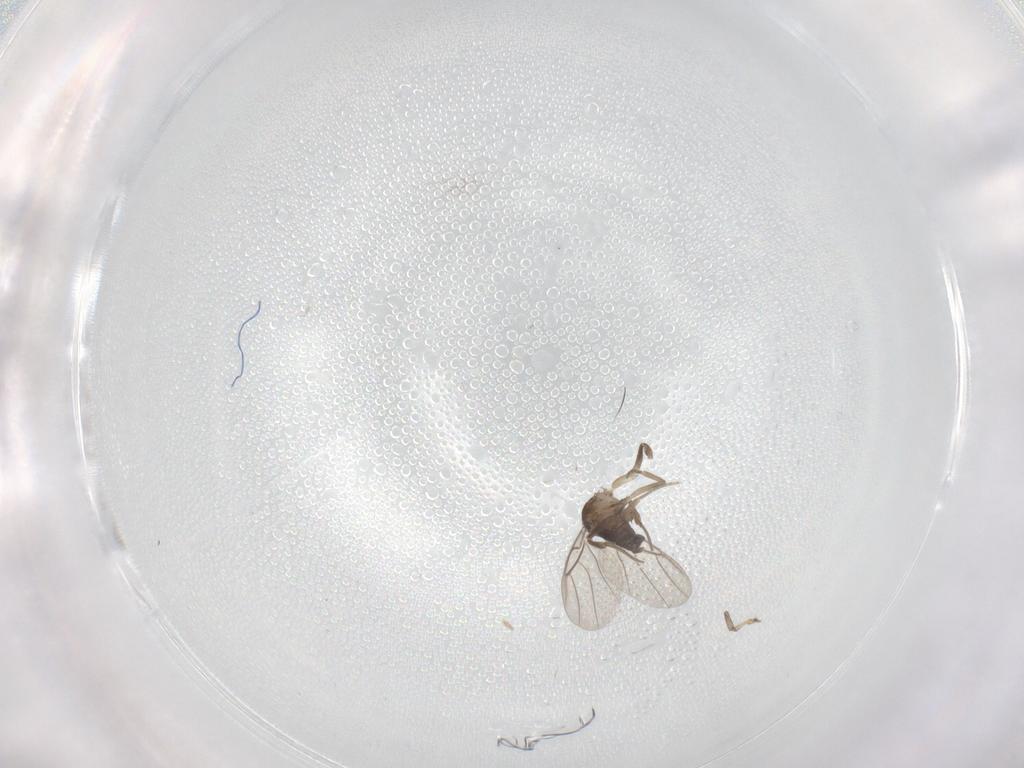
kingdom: Animalia
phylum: Arthropoda
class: Insecta
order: Diptera
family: Phoridae
